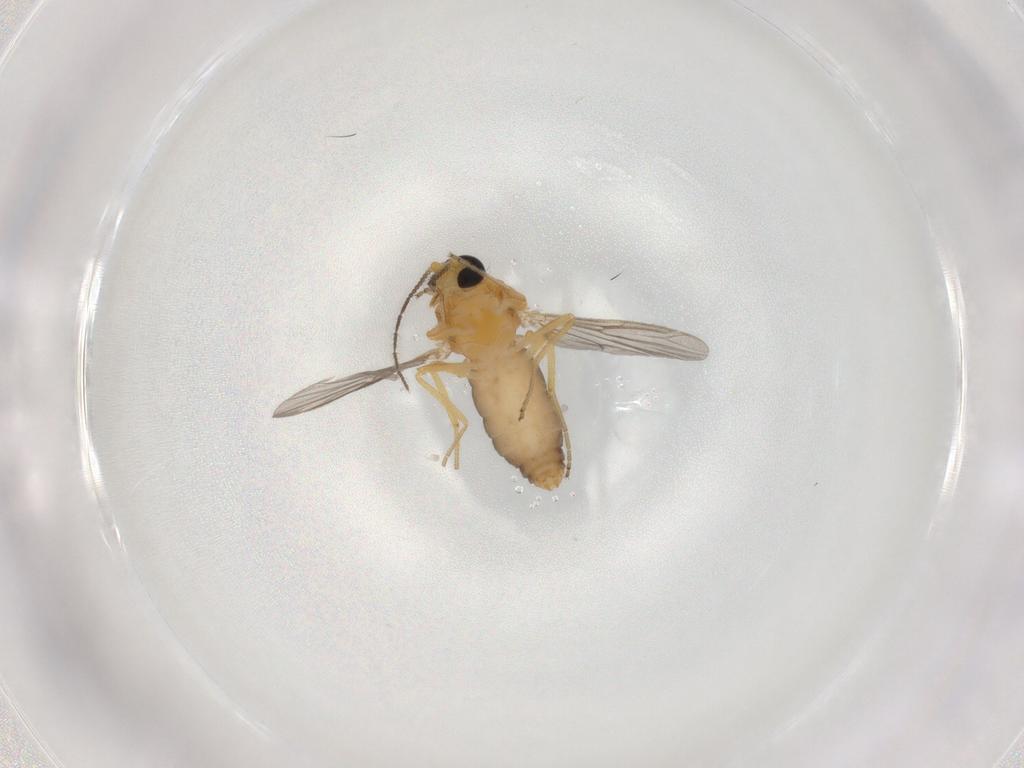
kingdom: Animalia
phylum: Arthropoda
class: Insecta
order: Diptera
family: Ceratopogonidae
